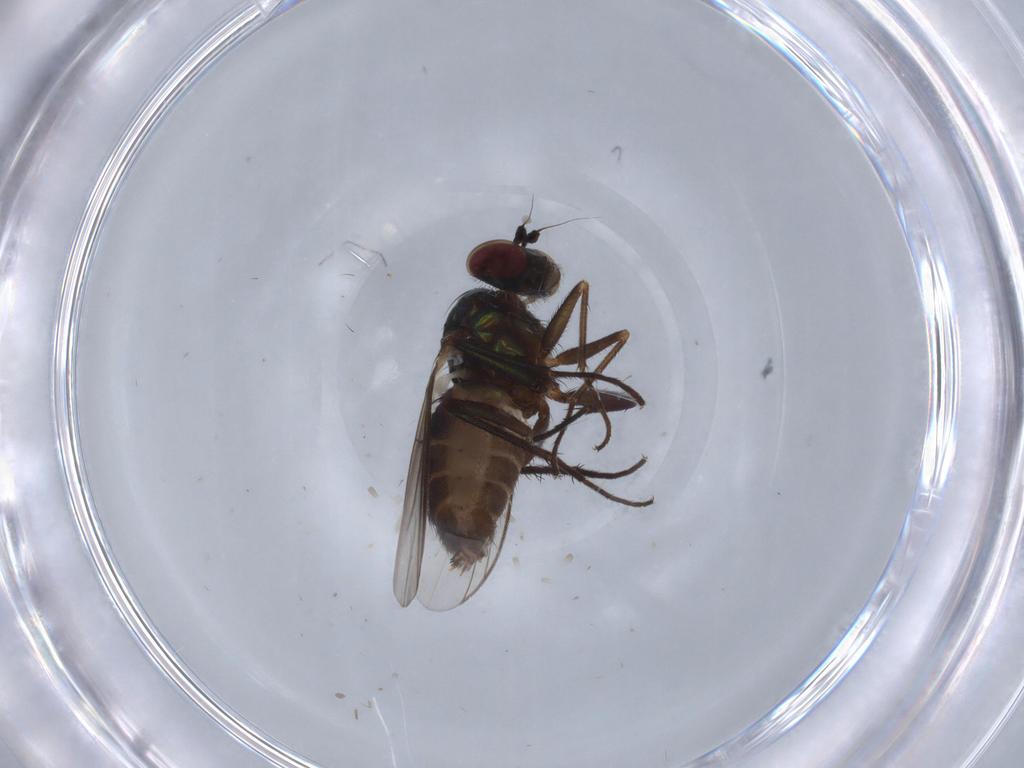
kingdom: Animalia
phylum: Arthropoda
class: Insecta
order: Diptera
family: Dolichopodidae
